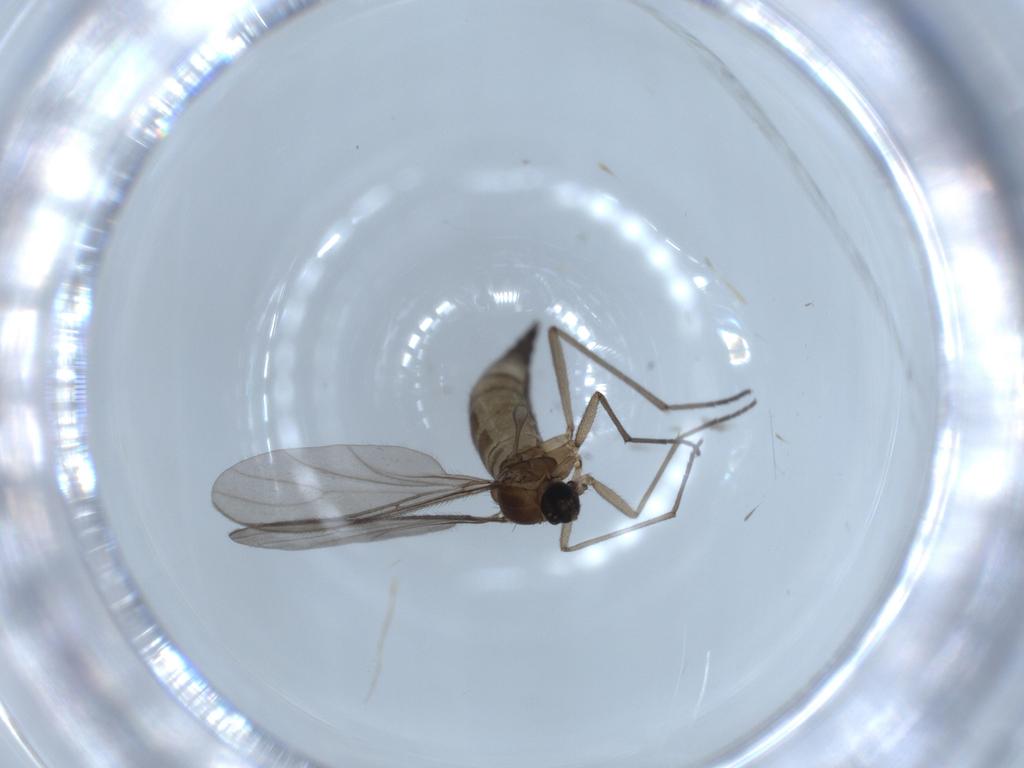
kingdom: Animalia
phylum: Arthropoda
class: Insecta
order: Diptera
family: Sciaridae
